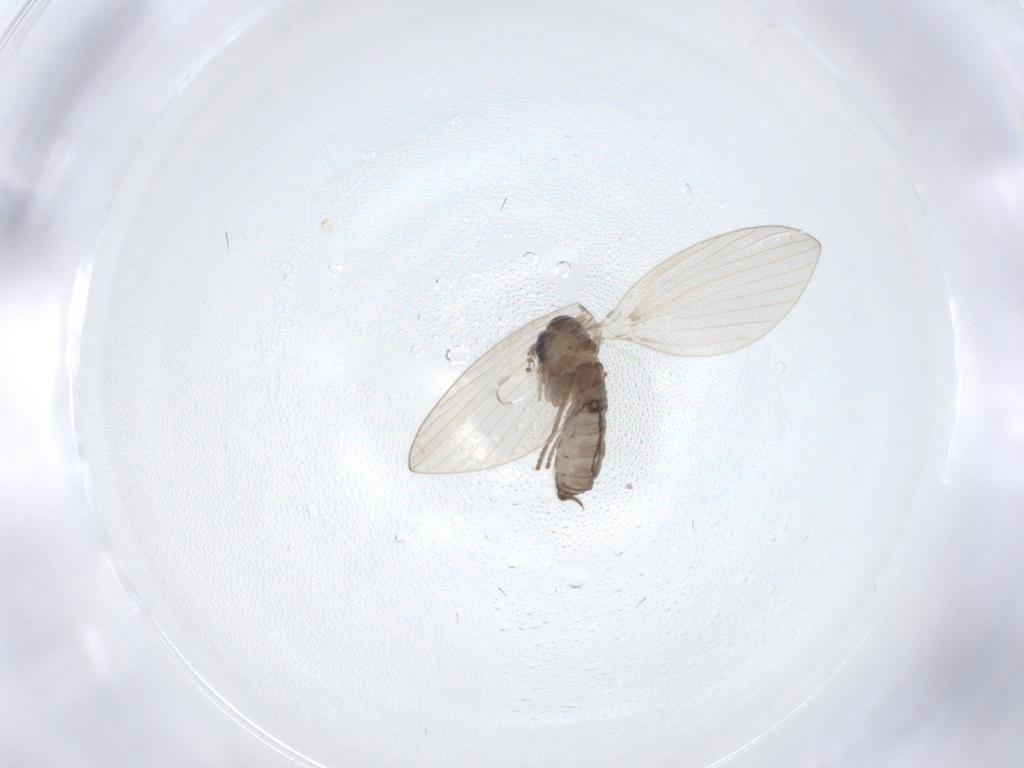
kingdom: Animalia
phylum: Arthropoda
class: Insecta
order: Diptera
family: Psychodidae
